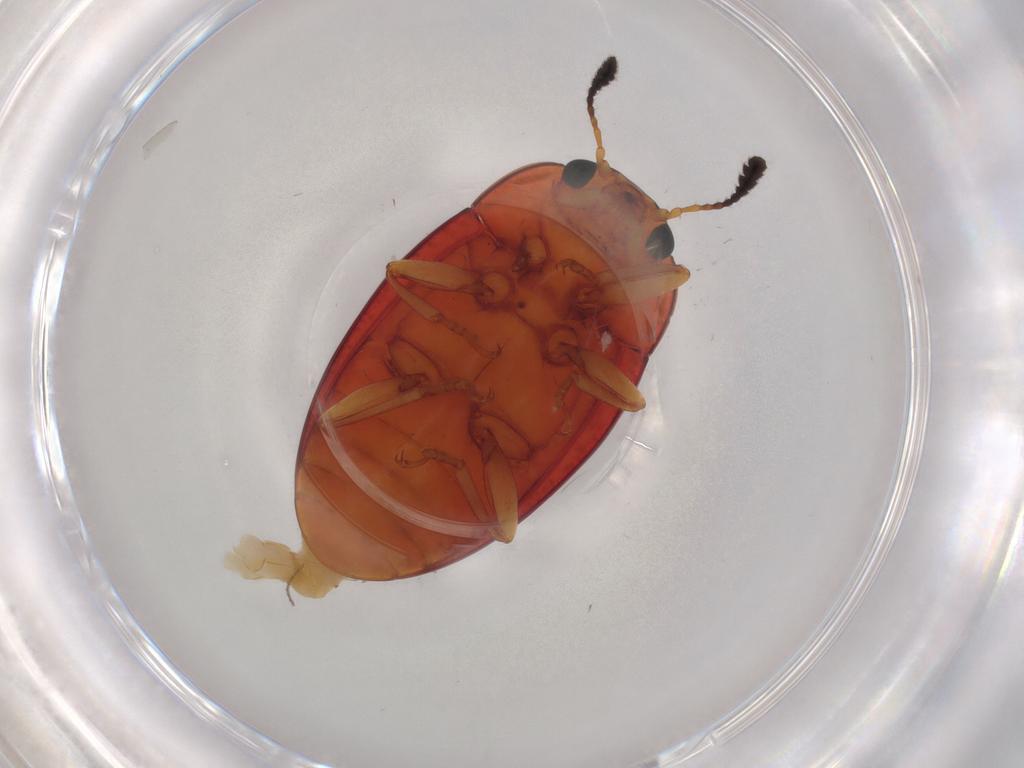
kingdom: Animalia
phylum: Arthropoda
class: Insecta
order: Coleoptera
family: Erotylidae
